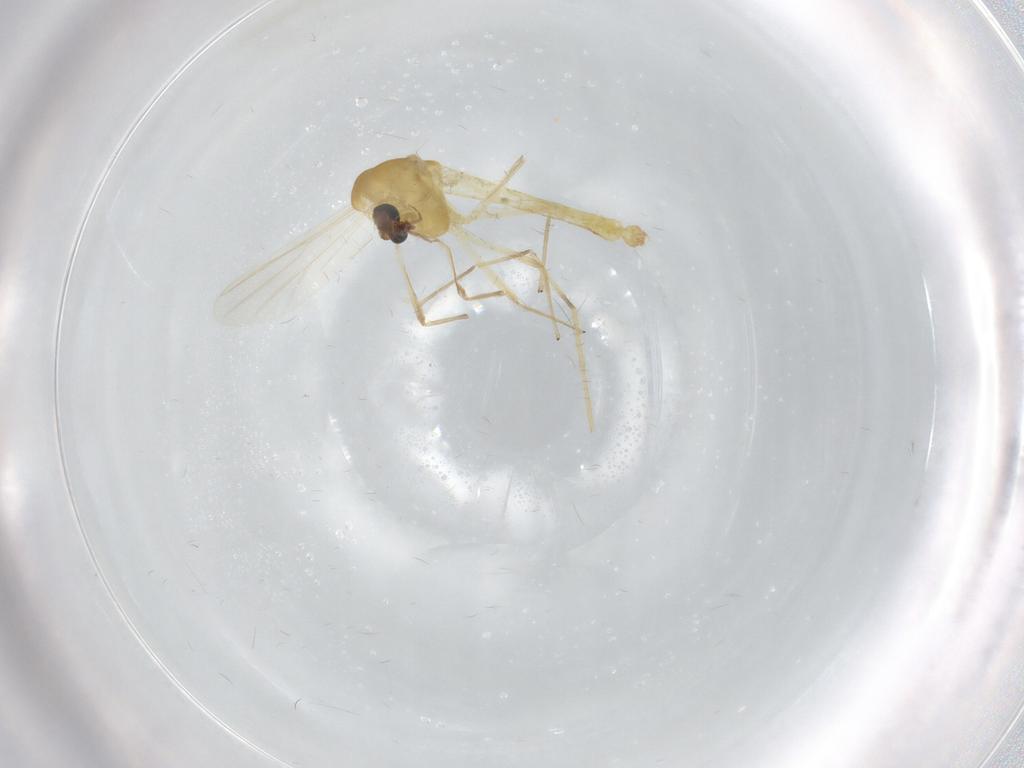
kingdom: Animalia
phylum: Arthropoda
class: Insecta
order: Diptera
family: Chironomidae
